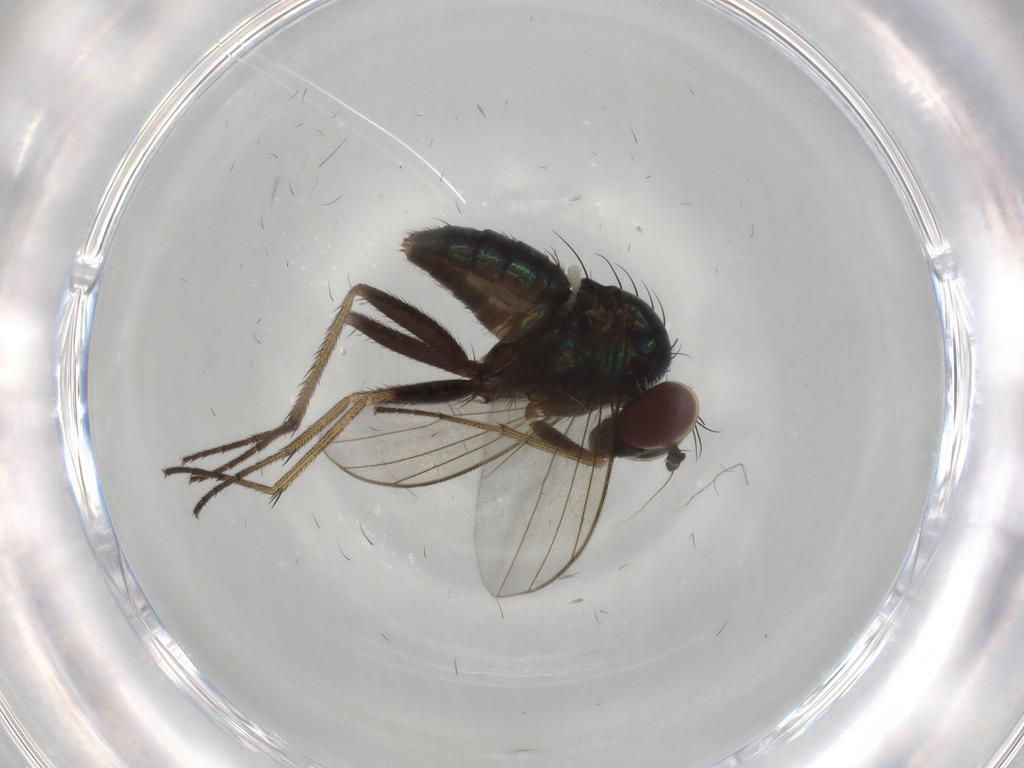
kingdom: Animalia
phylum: Arthropoda
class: Insecta
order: Diptera
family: Dolichopodidae
